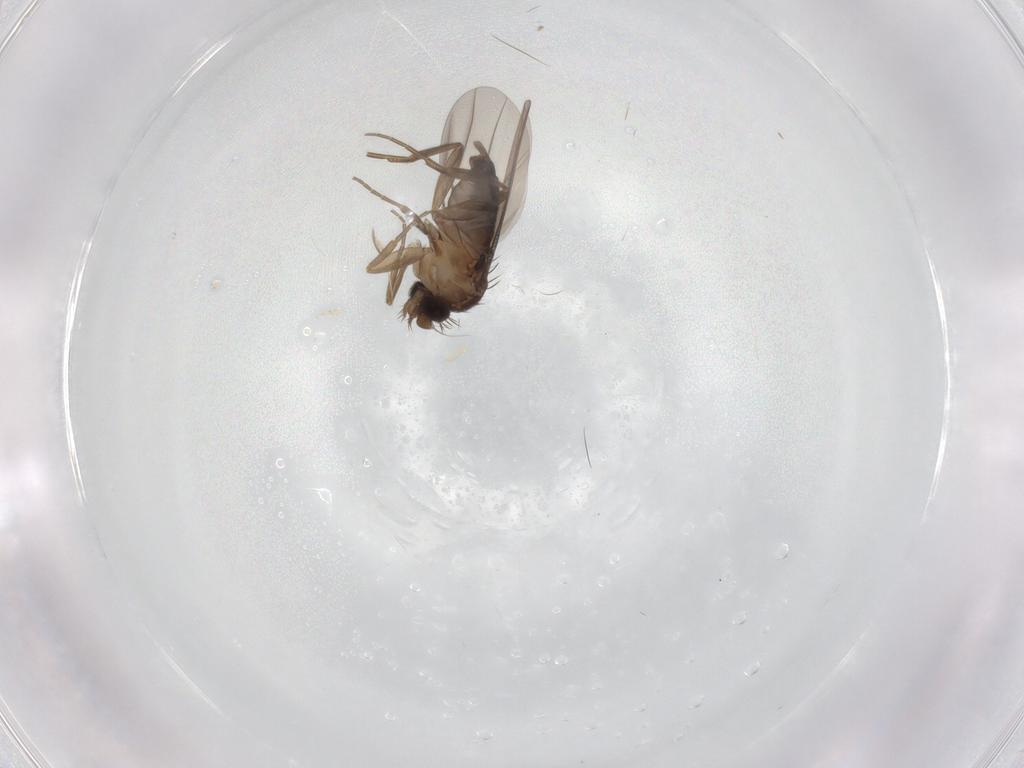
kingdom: Animalia
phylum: Arthropoda
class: Insecta
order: Diptera
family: Phoridae
